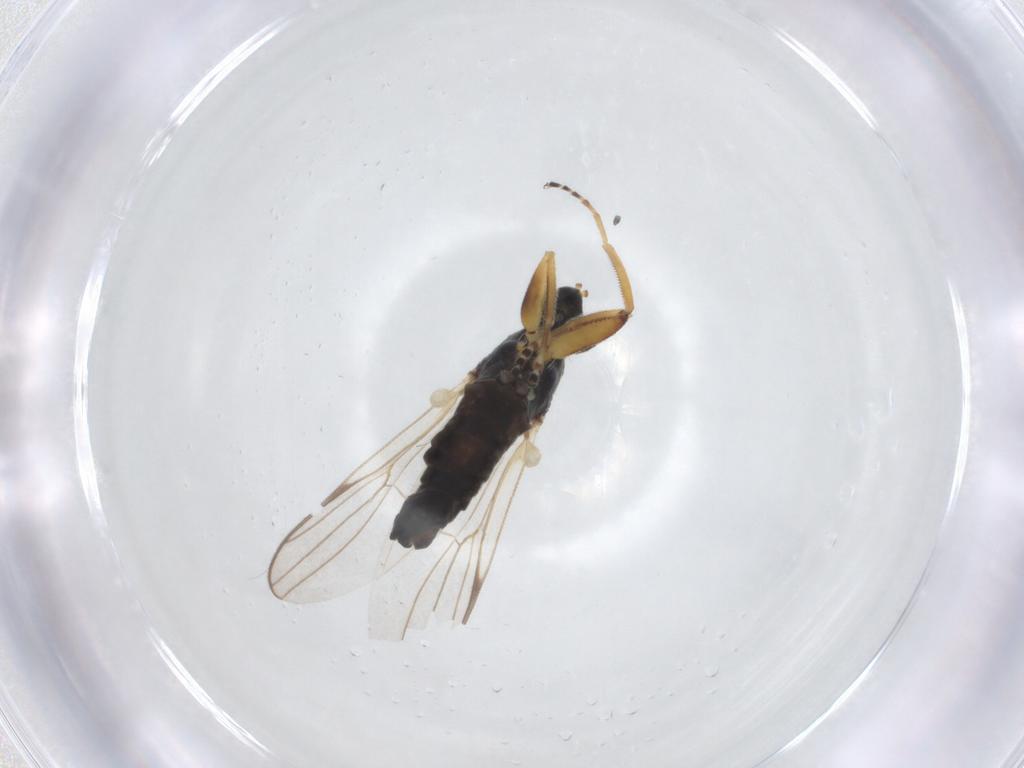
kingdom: Animalia
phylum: Arthropoda
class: Insecta
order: Diptera
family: Hybotidae
